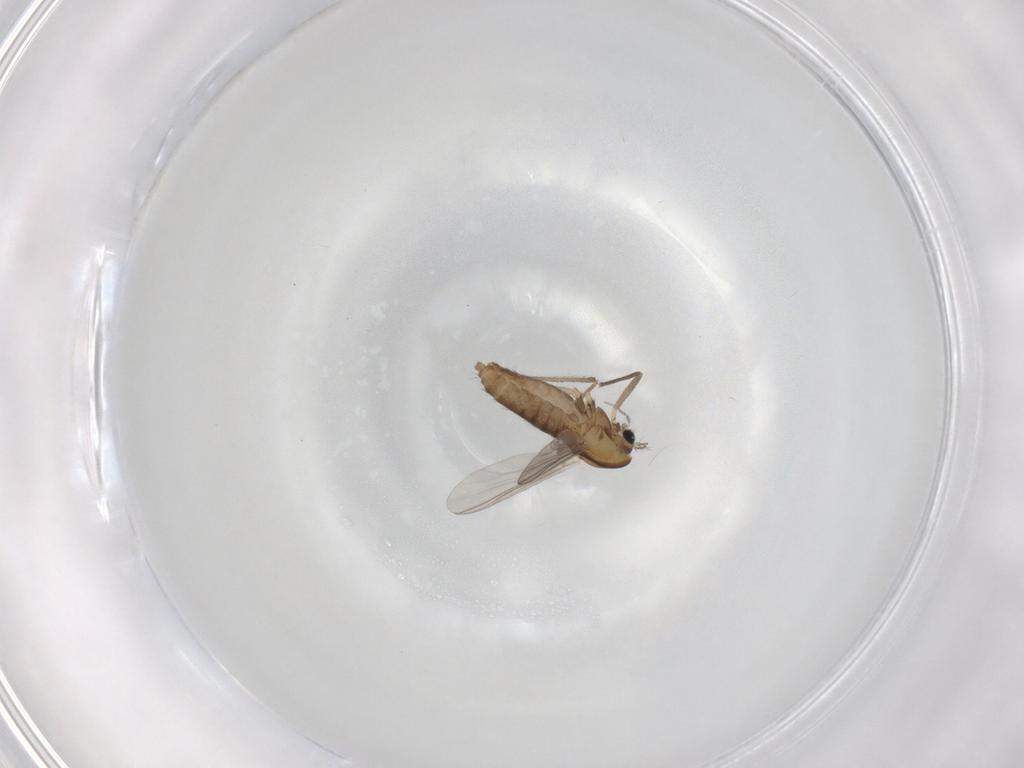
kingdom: Animalia
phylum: Arthropoda
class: Insecta
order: Diptera
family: Chironomidae
